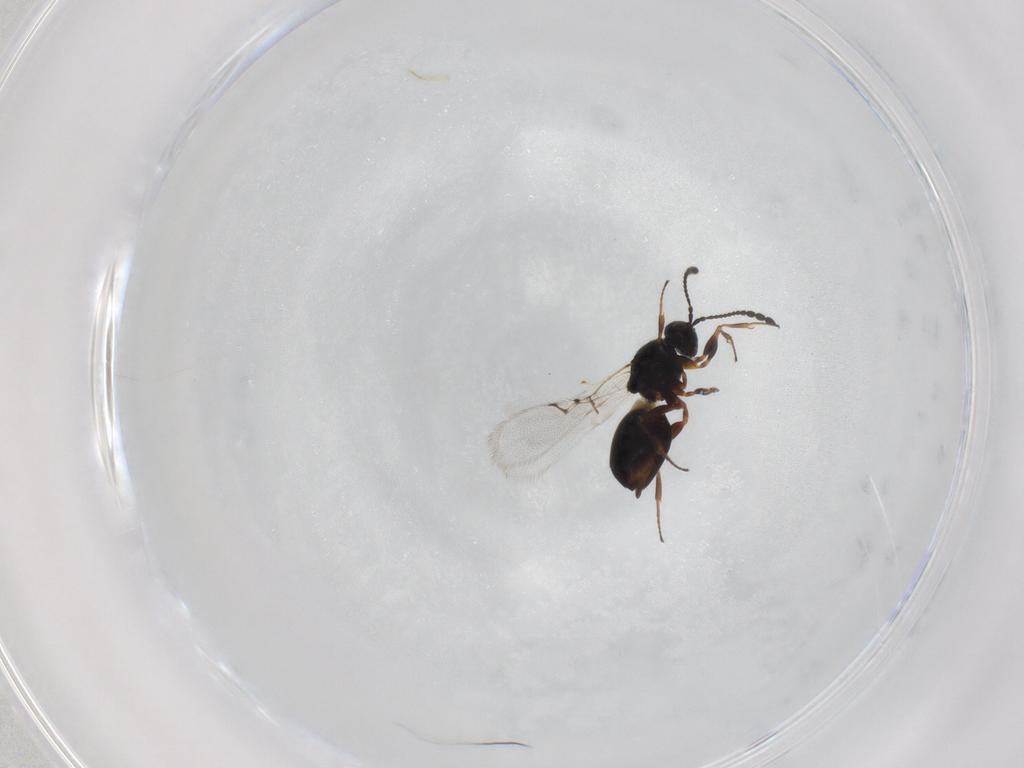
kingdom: Animalia
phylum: Arthropoda
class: Insecta
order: Hymenoptera
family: Figitidae
